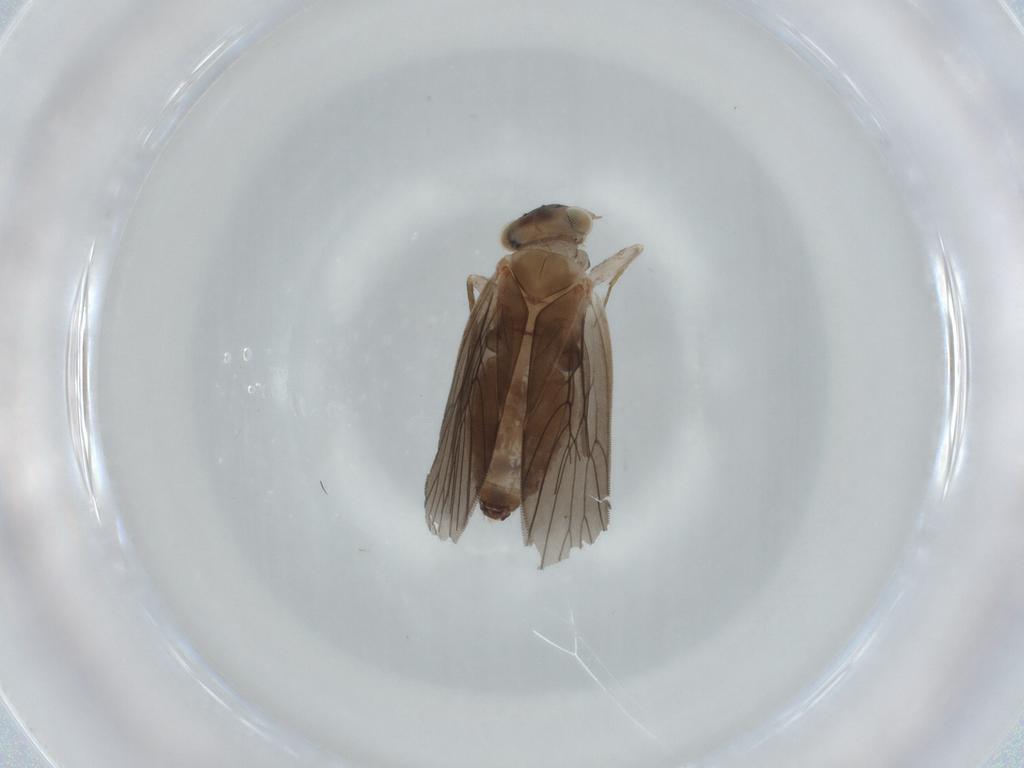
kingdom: Animalia
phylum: Arthropoda
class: Insecta
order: Psocodea
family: Lepidopsocidae
